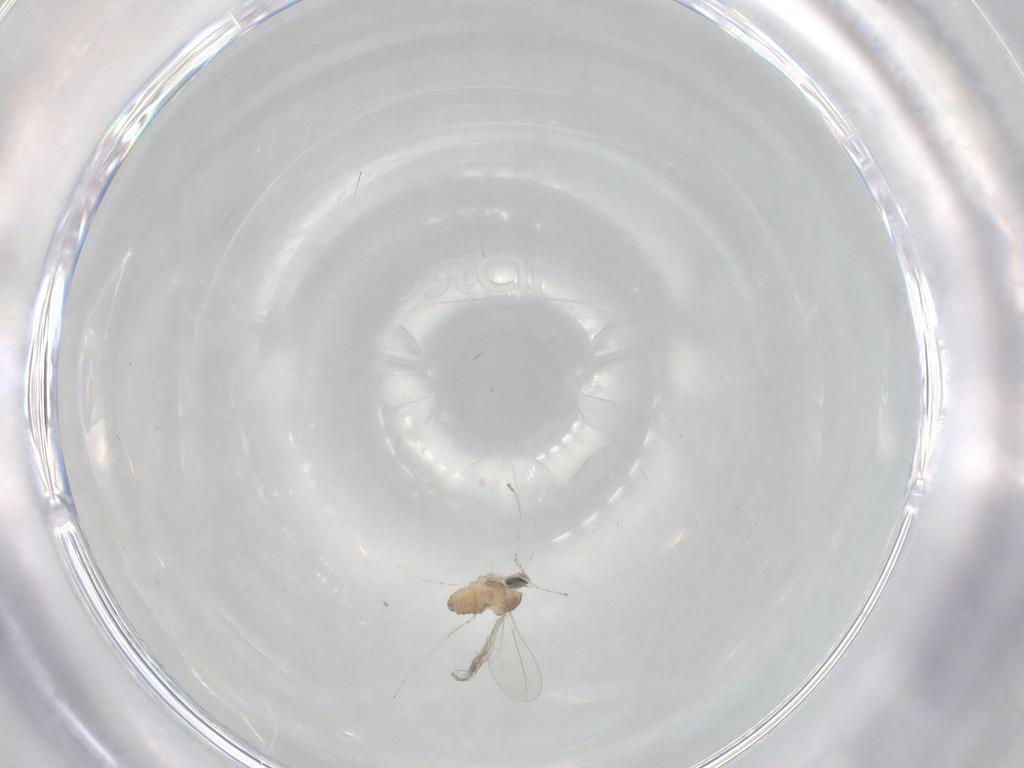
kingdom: Animalia
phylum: Arthropoda
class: Insecta
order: Diptera
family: Cecidomyiidae
